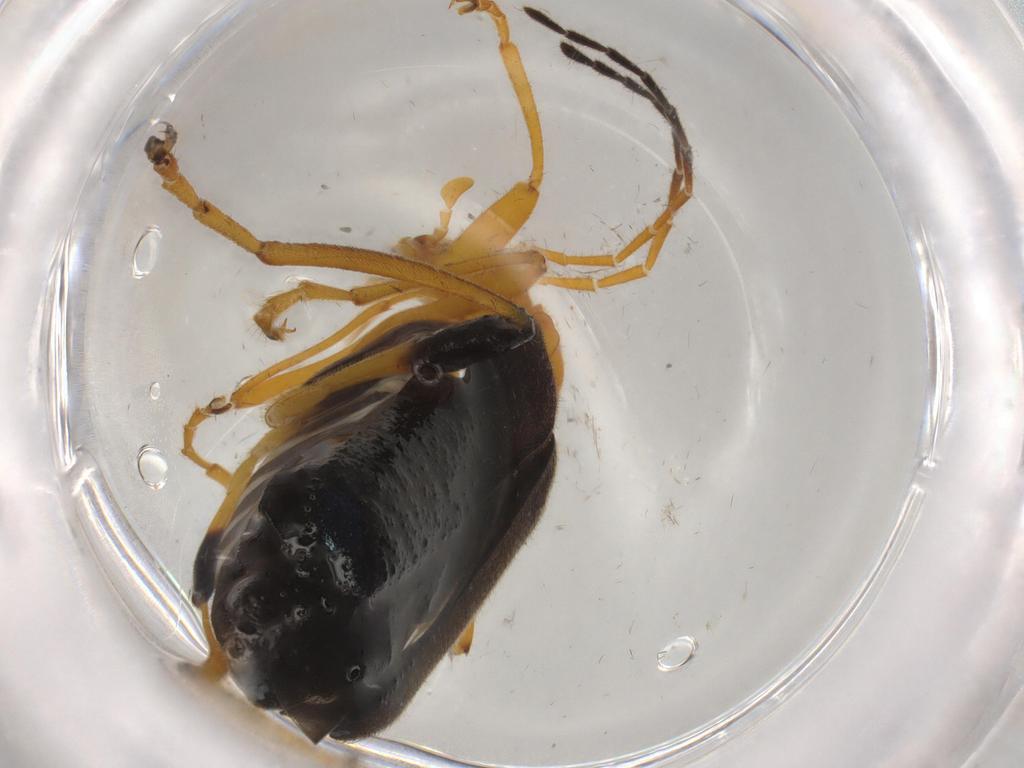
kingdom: Animalia
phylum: Arthropoda
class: Insecta
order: Coleoptera
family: Cantharidae
